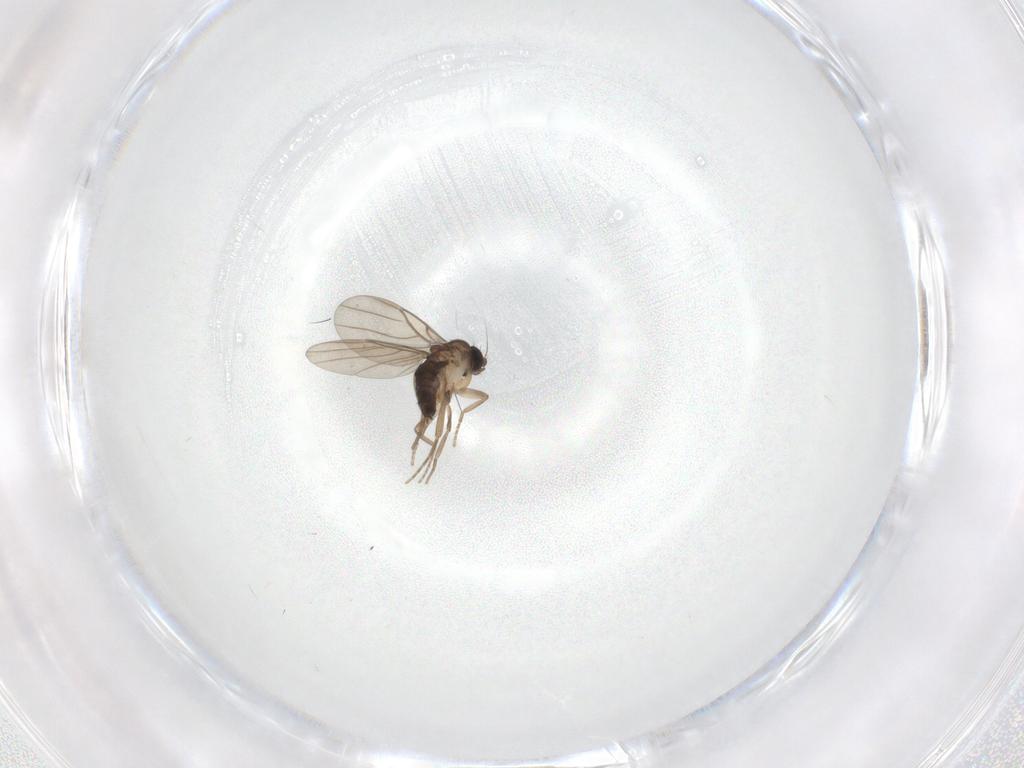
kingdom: Animalia
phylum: Arthropoda
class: Insecta
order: Diptera
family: Phoridae
